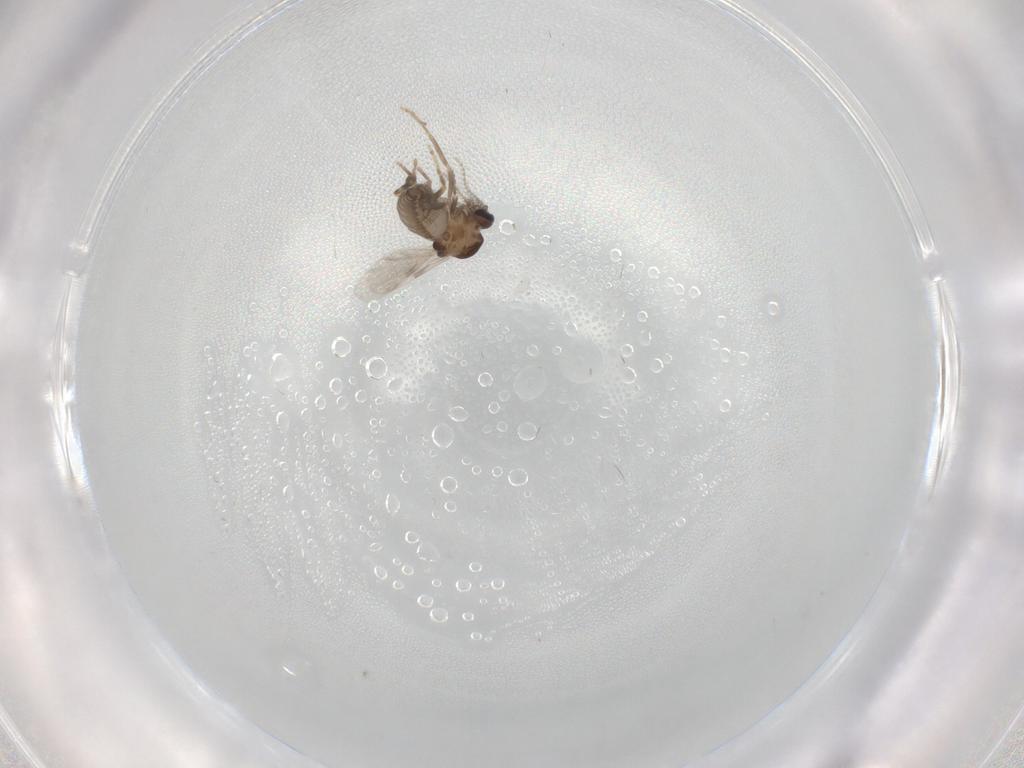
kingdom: Animalia
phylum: Arthropoda
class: Insecta
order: Diptera
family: Ceratopogonidae
